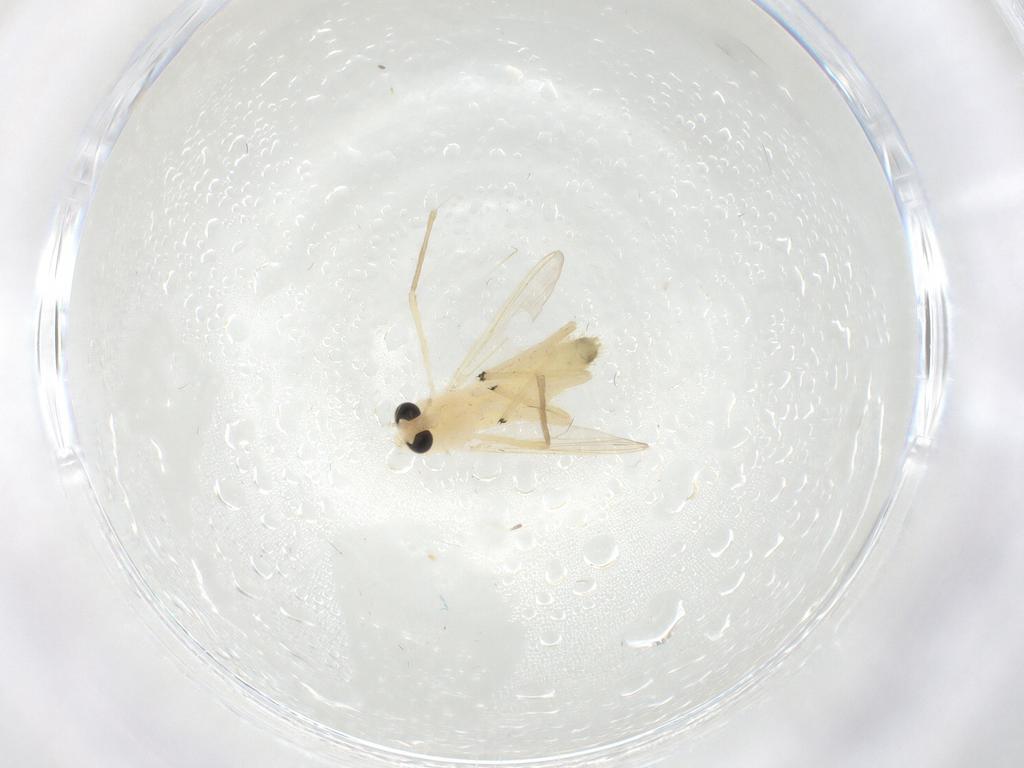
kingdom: Animalia
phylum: Arthropoda
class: Insecta
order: Diptera
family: Chironomidae
